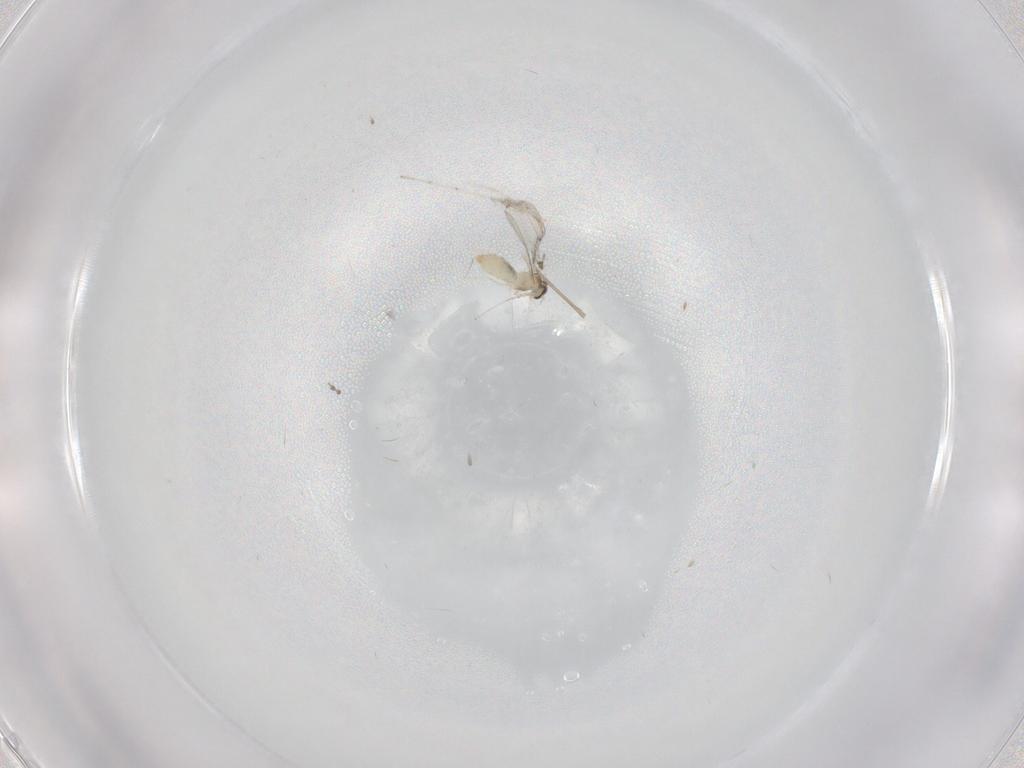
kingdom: Animalia
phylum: Arthropoda
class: Insecta
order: Diptera
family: Cecidomyiidae
